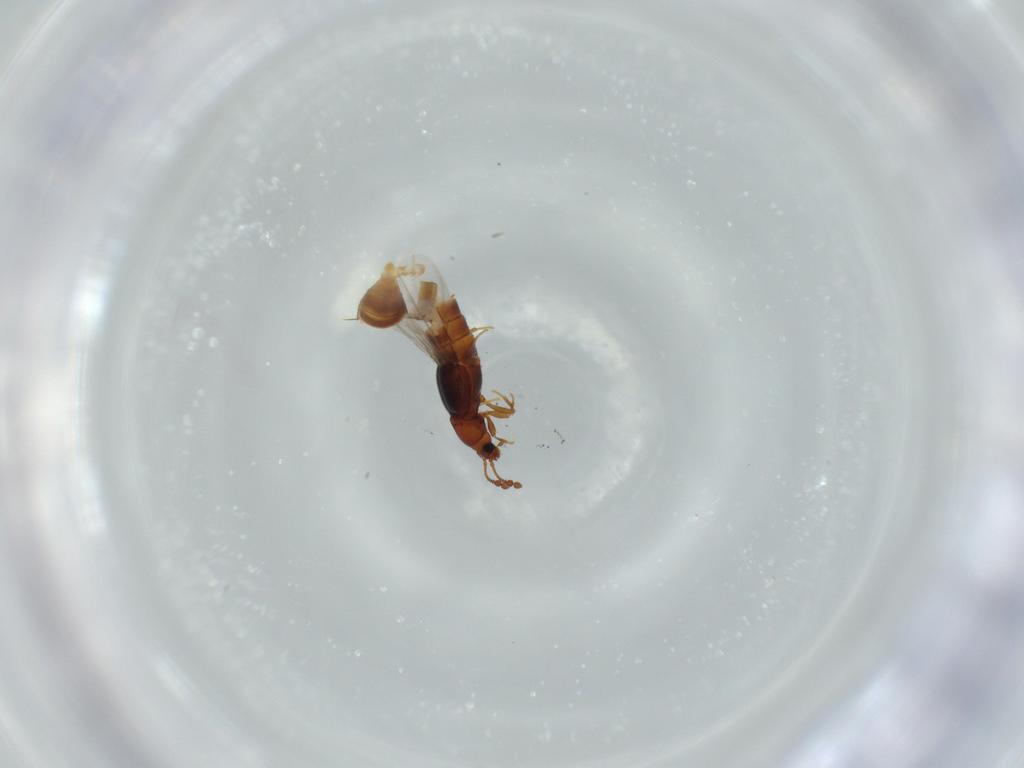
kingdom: Animalia
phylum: Arthropoda
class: Insecta
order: Coleoptera
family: Staphylinidae
